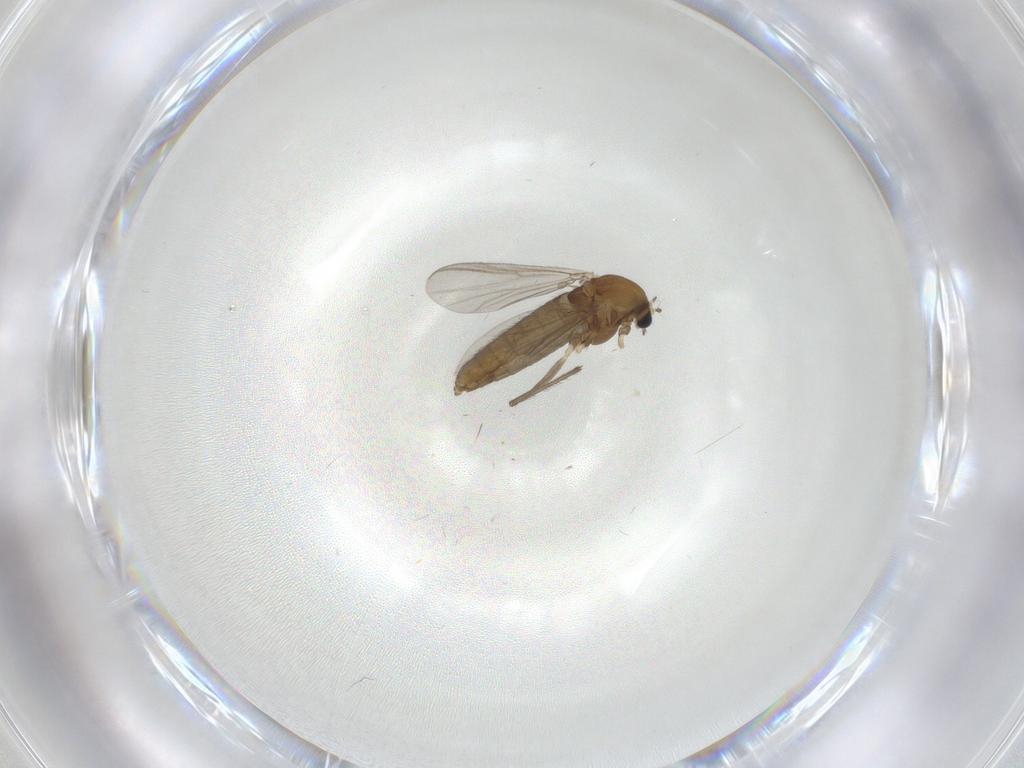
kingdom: Animalia
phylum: Arthropoda
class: Insecta
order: Diptera
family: Chironomidae
